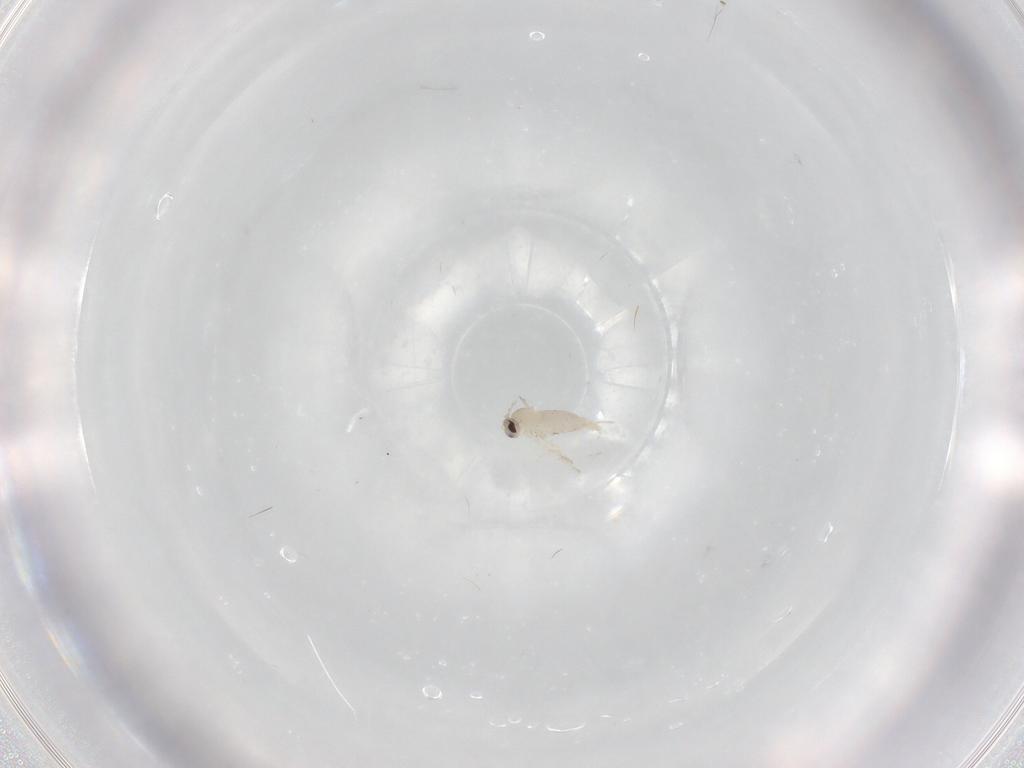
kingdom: Animalia
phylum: Arthropoda
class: Insecta
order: Diptera
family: Cecidomyiidae
